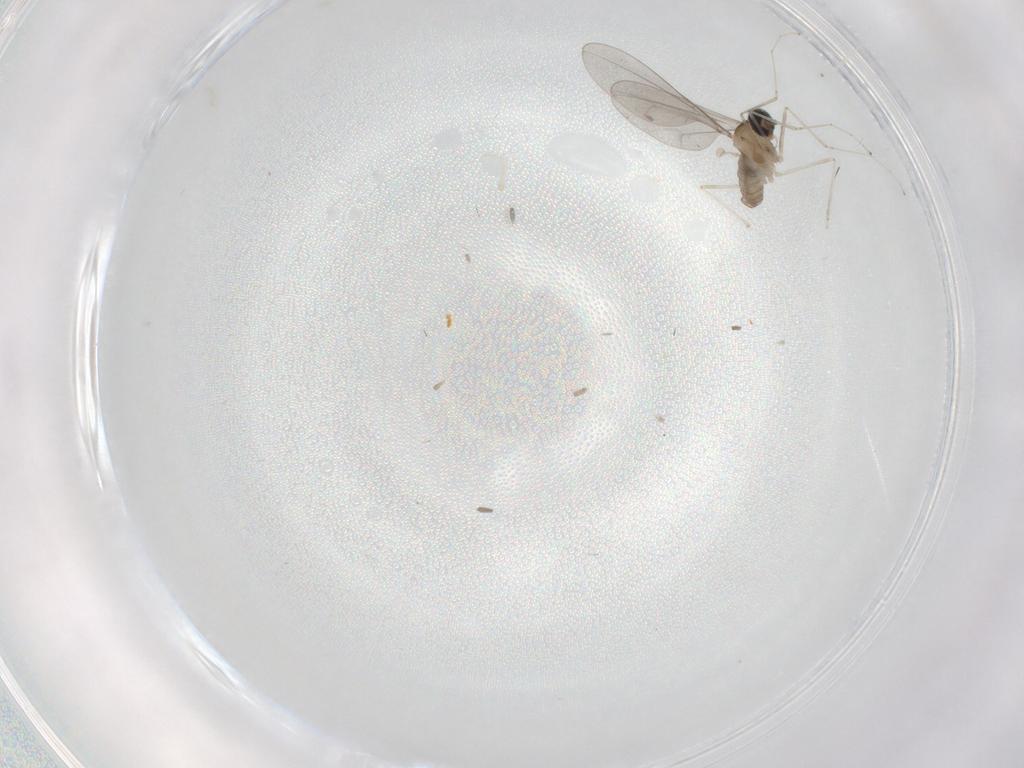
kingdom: Animalia
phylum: Arthropoda
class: Insecta
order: Diptera
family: Cecidomyiidae
